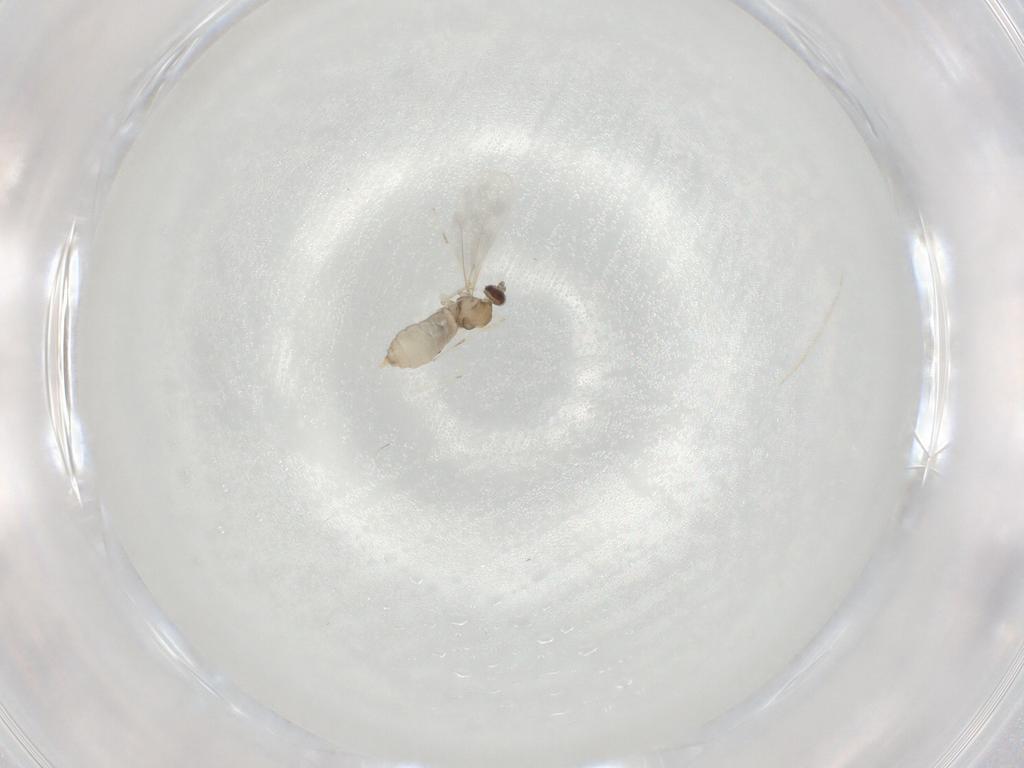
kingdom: Animalia
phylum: Arthropoda
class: Insecta
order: Diptera
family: Cecidomyiidae
